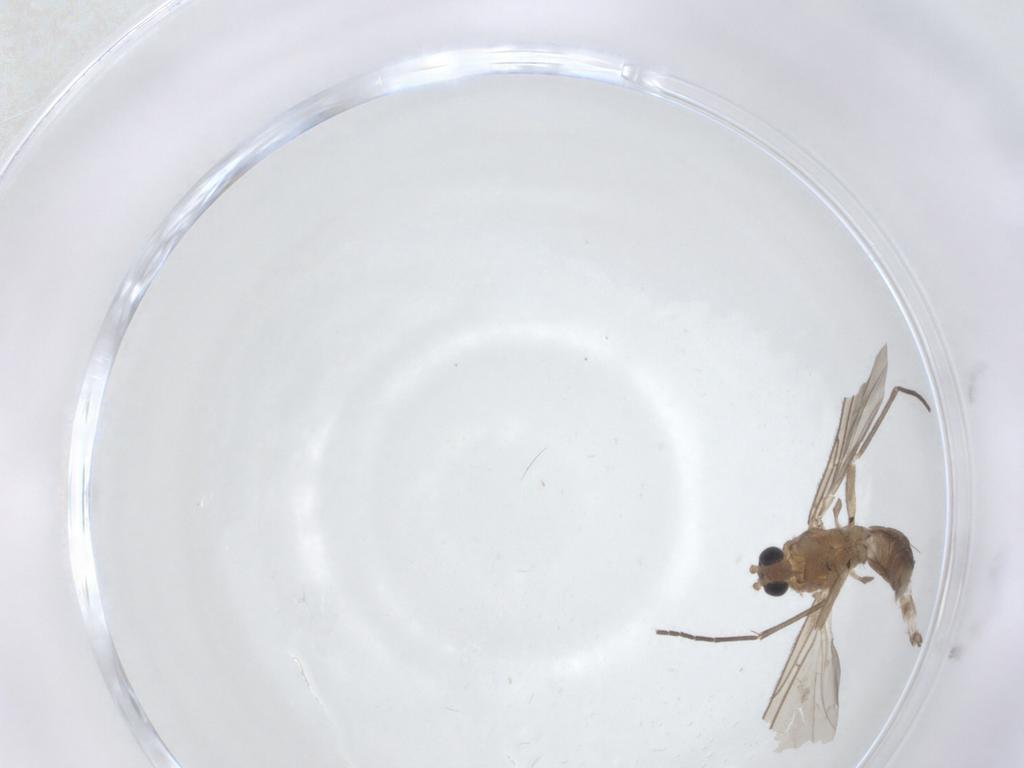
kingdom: Animalia
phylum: Arthropoda
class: Insecta
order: Diptera
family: Sciaridae
